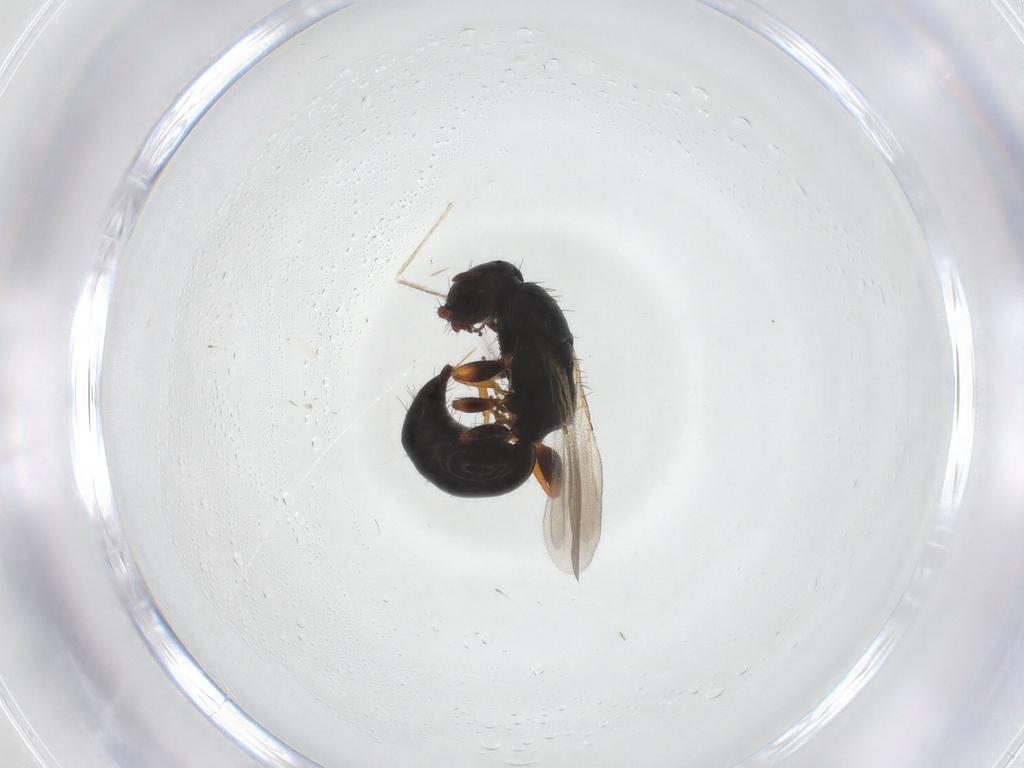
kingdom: Animalia
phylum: Arthropoda
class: Insecta
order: Hymenoptera
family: Bethylidae
